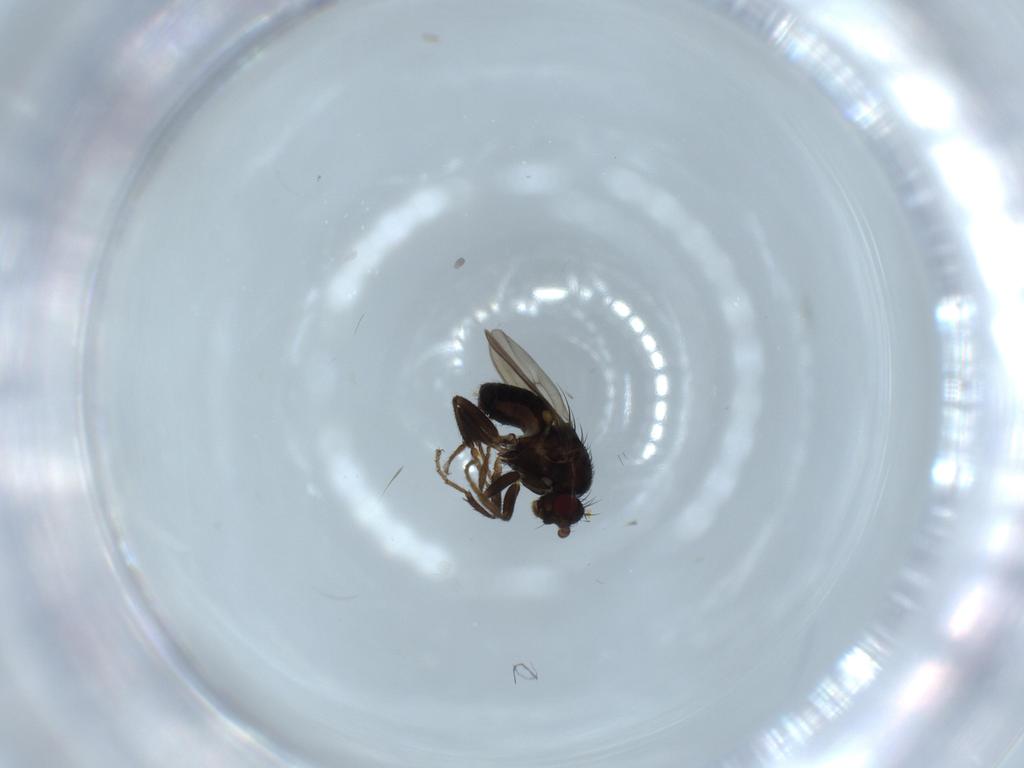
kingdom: Animalia
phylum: Arthropoda
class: Insecta
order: Diptera
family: Sphaeroceridae
